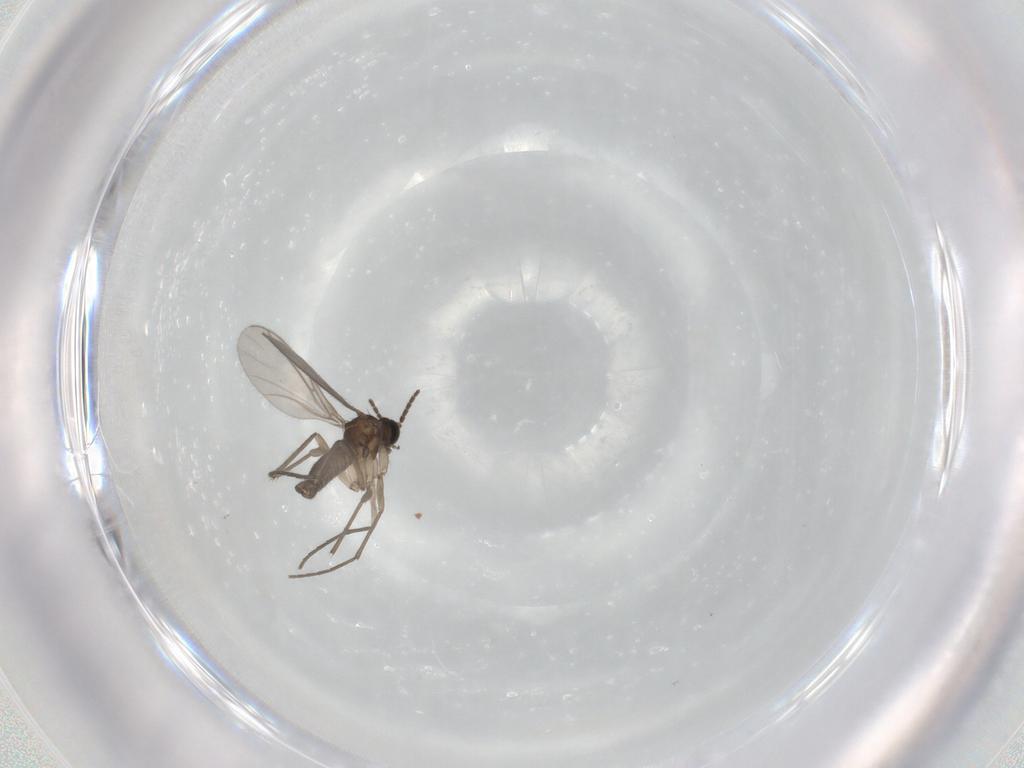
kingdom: Animalia
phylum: Arthropoda
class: Insecta
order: Diptera
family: Sciaridae
